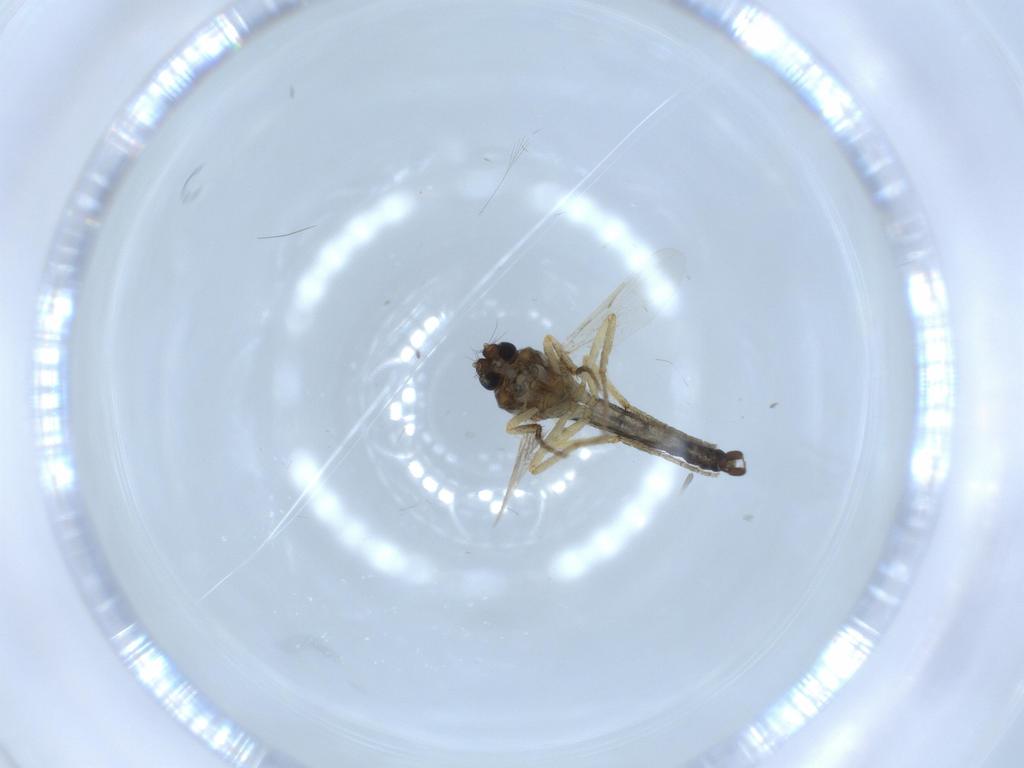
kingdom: Animalia
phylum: Arthropoda
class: Insecta
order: Diptera
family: Ceratopogonidae
